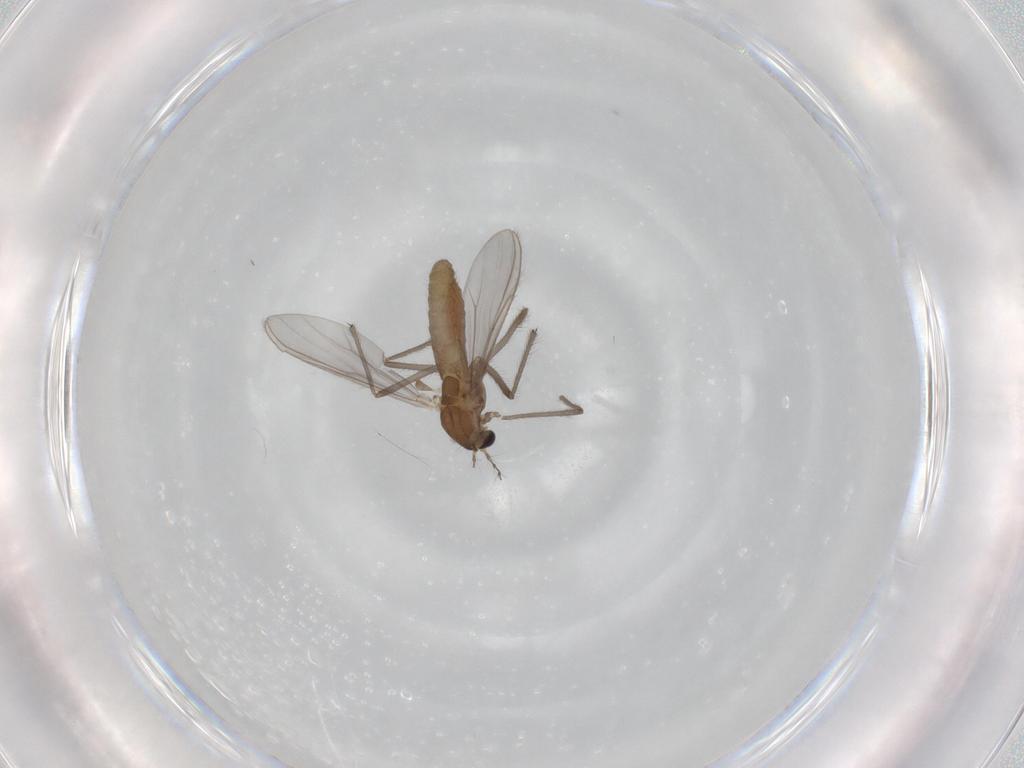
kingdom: Animalia
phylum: Arthropoda
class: Insecta
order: Diptera
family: Chironomidae
